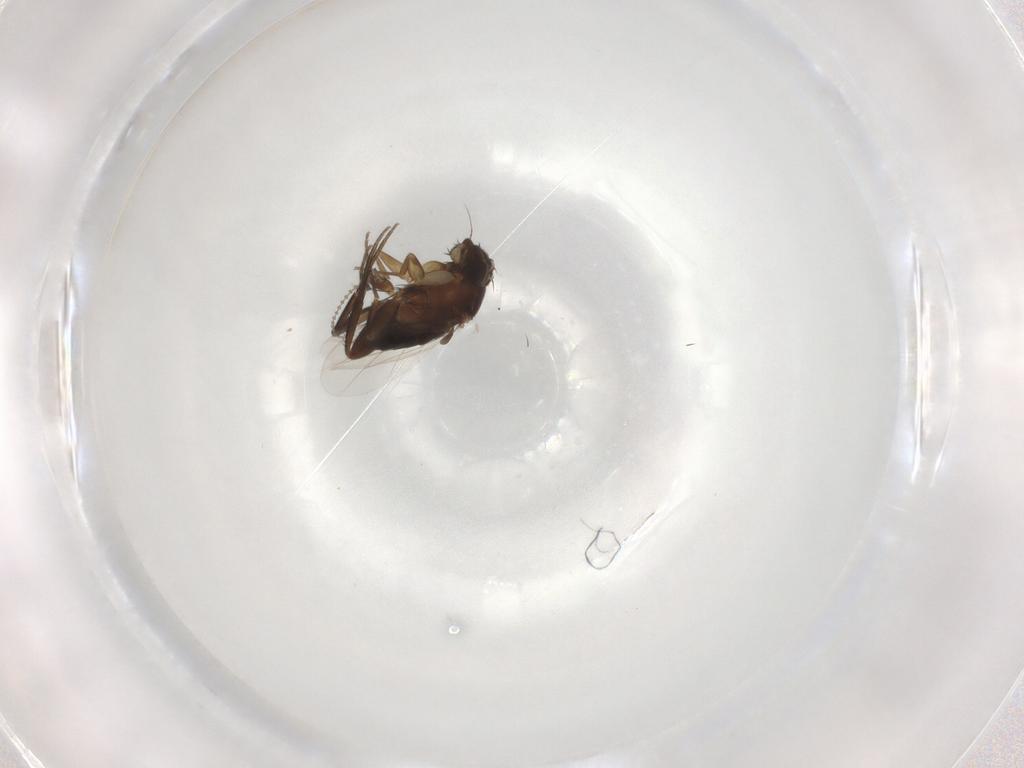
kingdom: Animalia
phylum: Arthropoda
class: Insecta
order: Diptera
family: Cecidomyiidae
